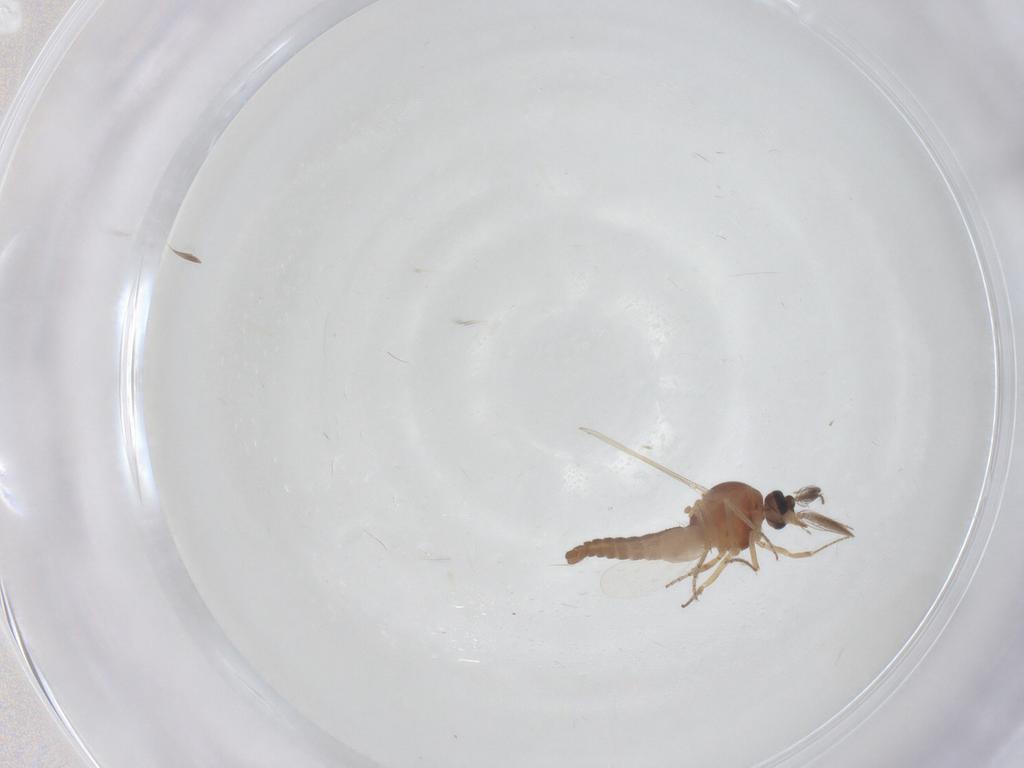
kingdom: Animalia
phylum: Arthropoda
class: Insecta
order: Diptera
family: Ceratopogonidae
